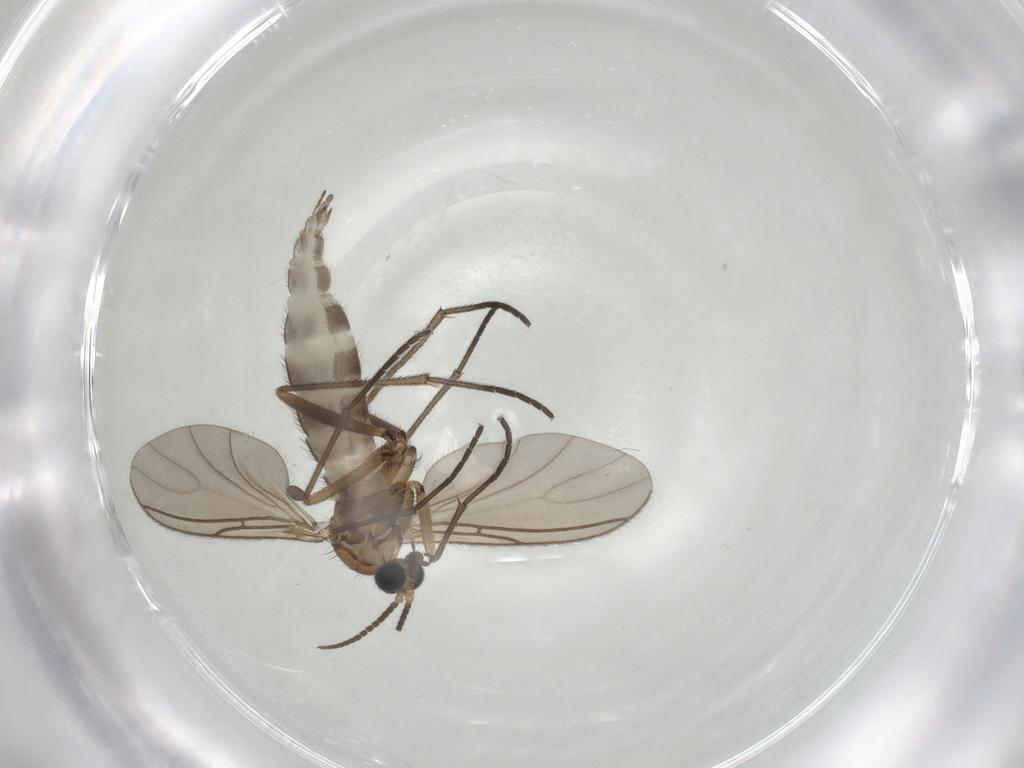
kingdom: Animalia
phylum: Arthropoda
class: Insecta
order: Diptera
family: Sciaridae
